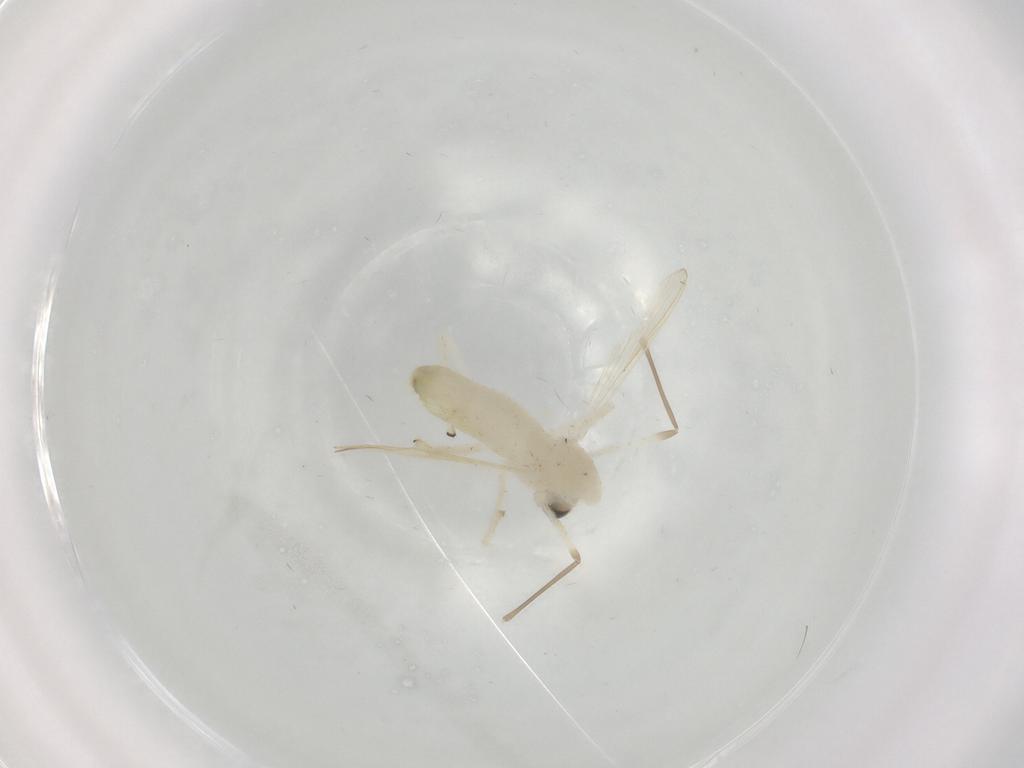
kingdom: Animalia
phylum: Arthropoda
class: Insecta
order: Diptera
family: Chironomidae
